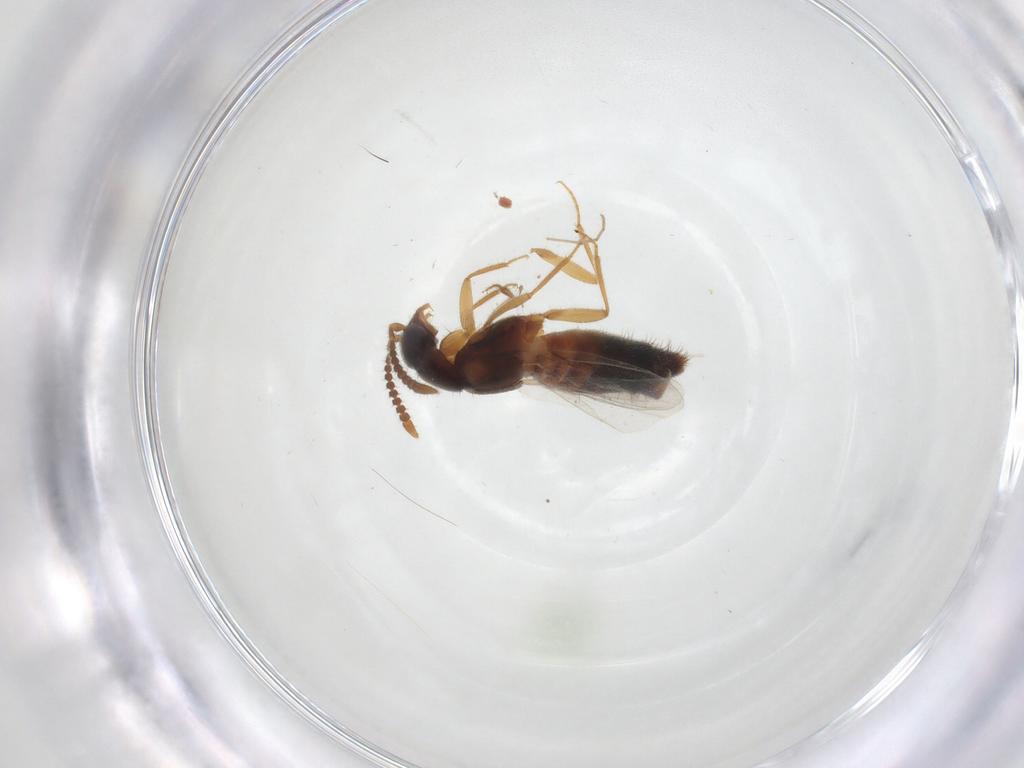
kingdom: Animalia
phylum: Arthropoda
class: Insecta
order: Coleoptera
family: Staphylinidae
